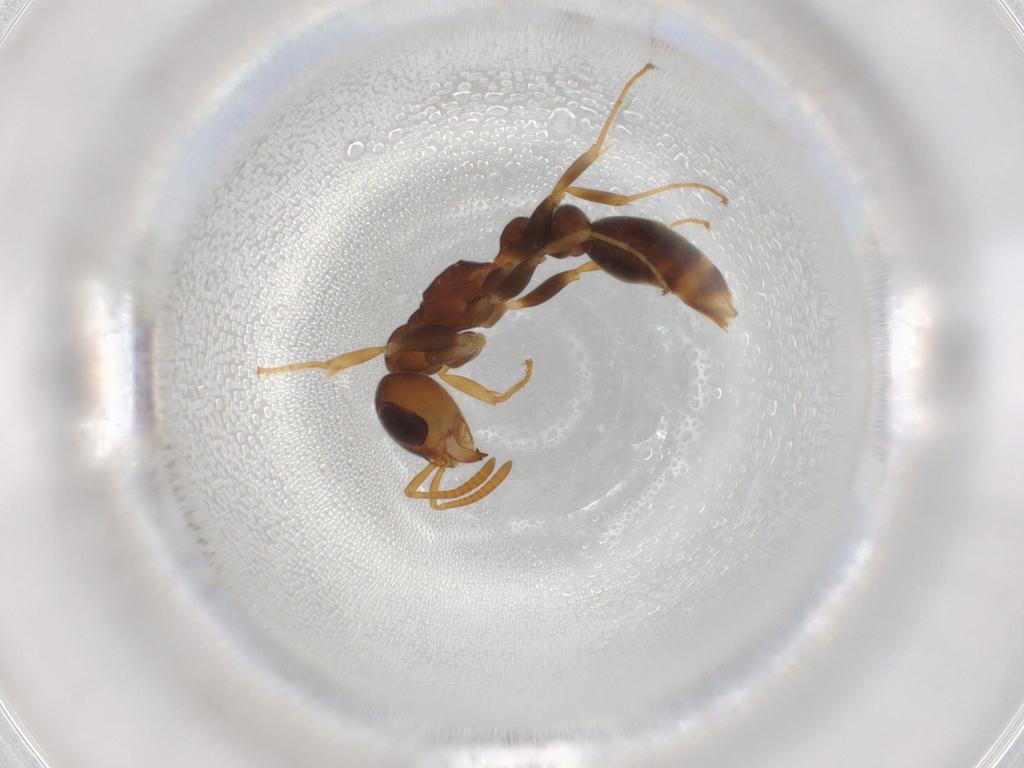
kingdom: Animalia
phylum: Arthropoda
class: Insecta
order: Hymenoptera
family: Formicidae
